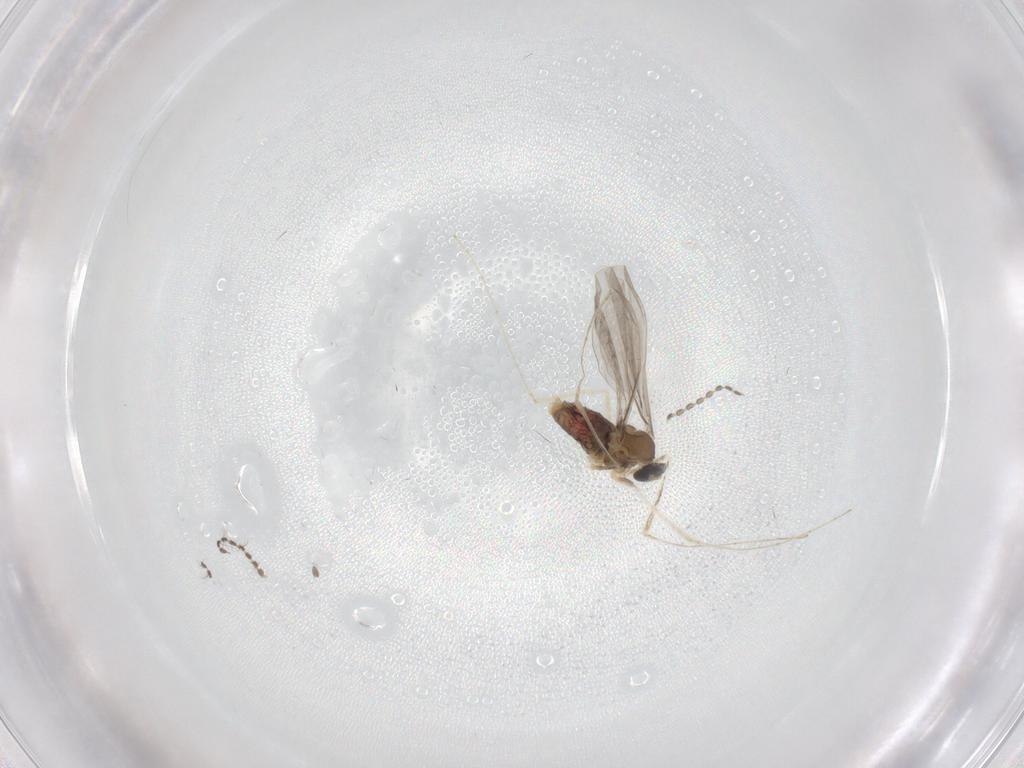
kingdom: Animalia
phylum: Arthropoda
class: Insecta
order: Diptera
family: Cecidomyiidae
